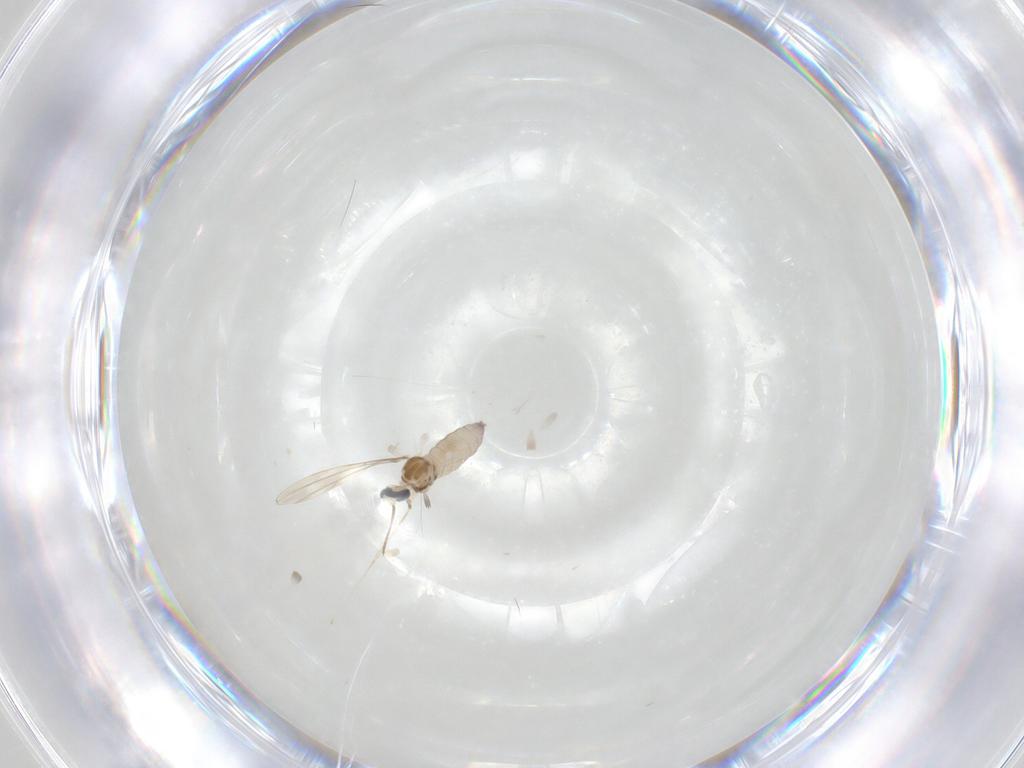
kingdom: Animalia
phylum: Arthropoda
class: Insecta
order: Diptera
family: Cecidomyiidae
